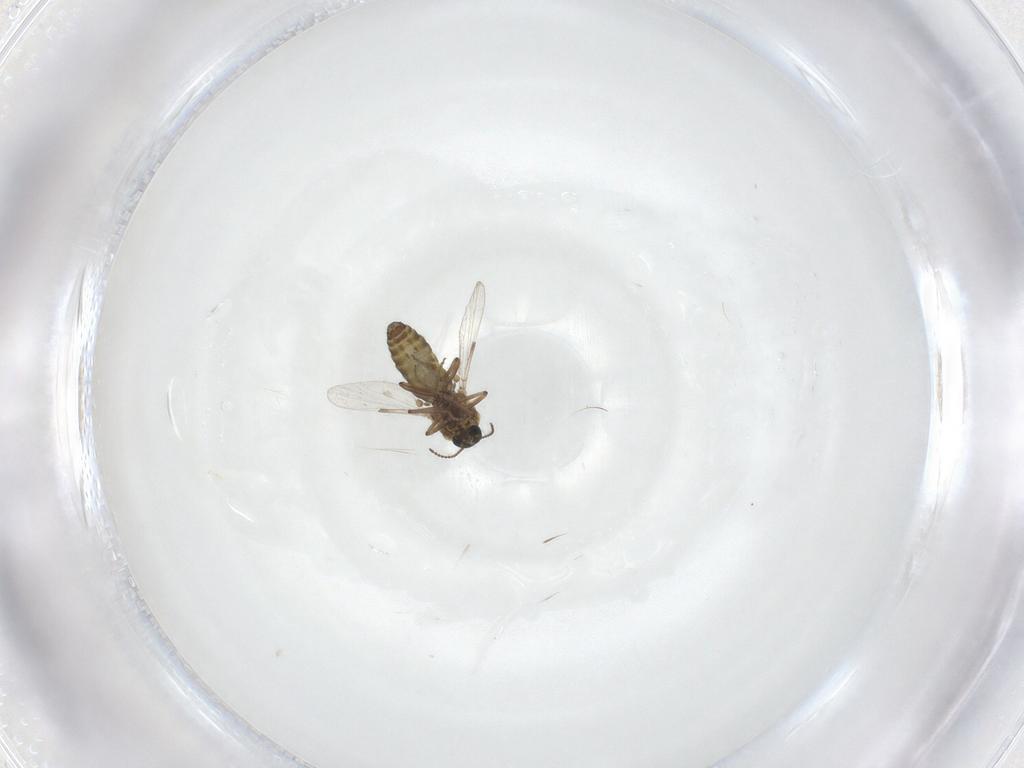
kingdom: Animalia
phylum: Arthropoda
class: Insecta
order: Diptera
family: Ceratopogonidae
